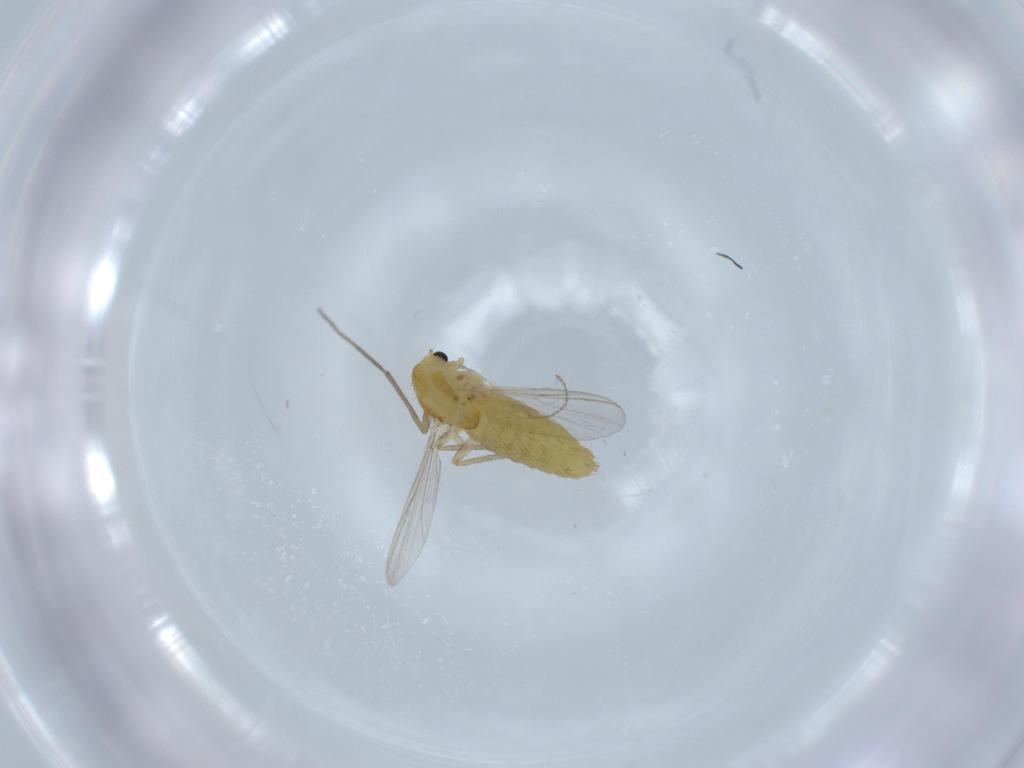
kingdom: Animalia
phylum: Arthropoda
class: Insecta
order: Diptera
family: Chironomidae
